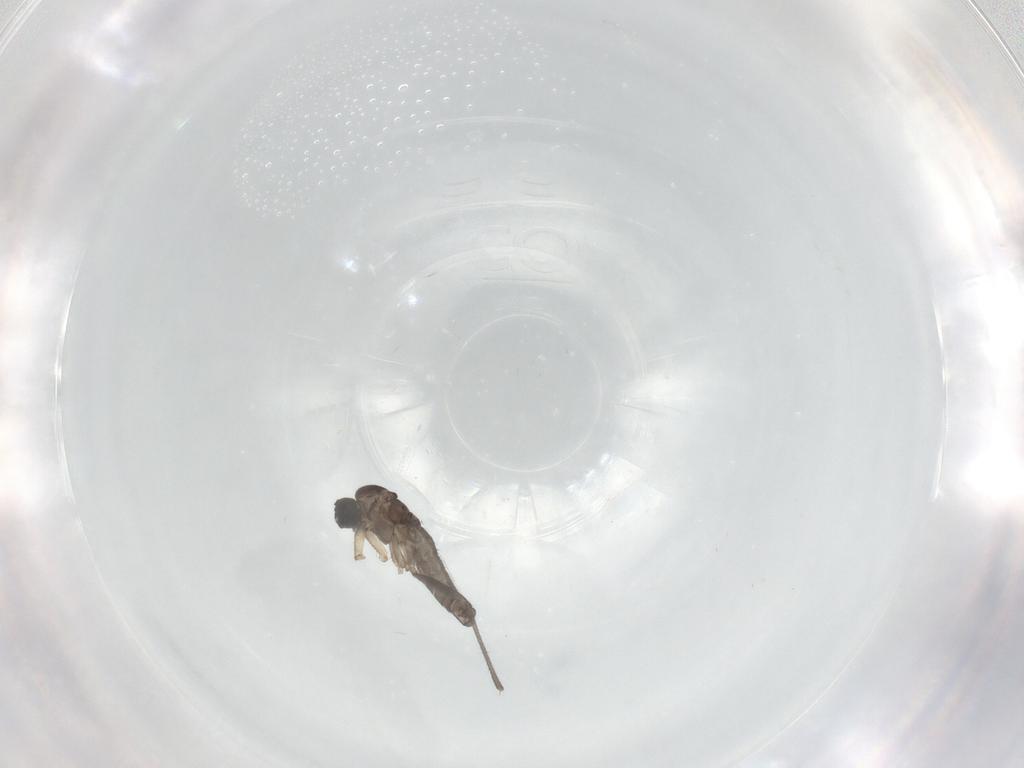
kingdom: Animalia
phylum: Arthropoda
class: Insecta
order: Diptera
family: Sciaridae
